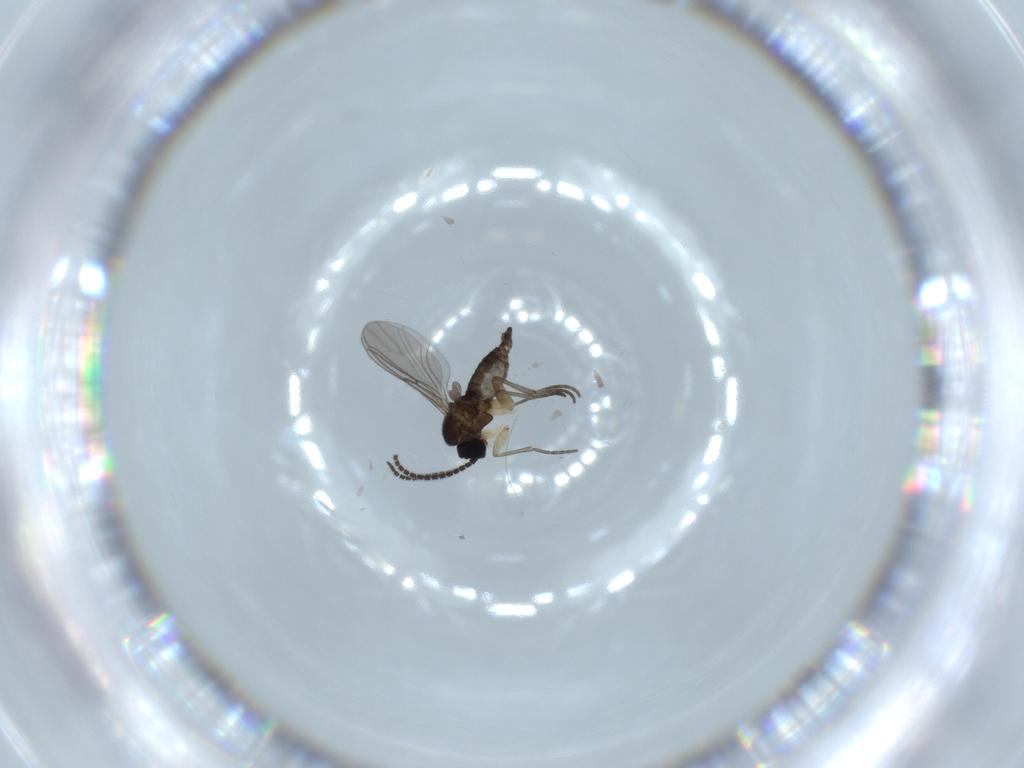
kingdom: Animalia
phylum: Arthropoda
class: Insecta
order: Diptera
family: Sciaridae
